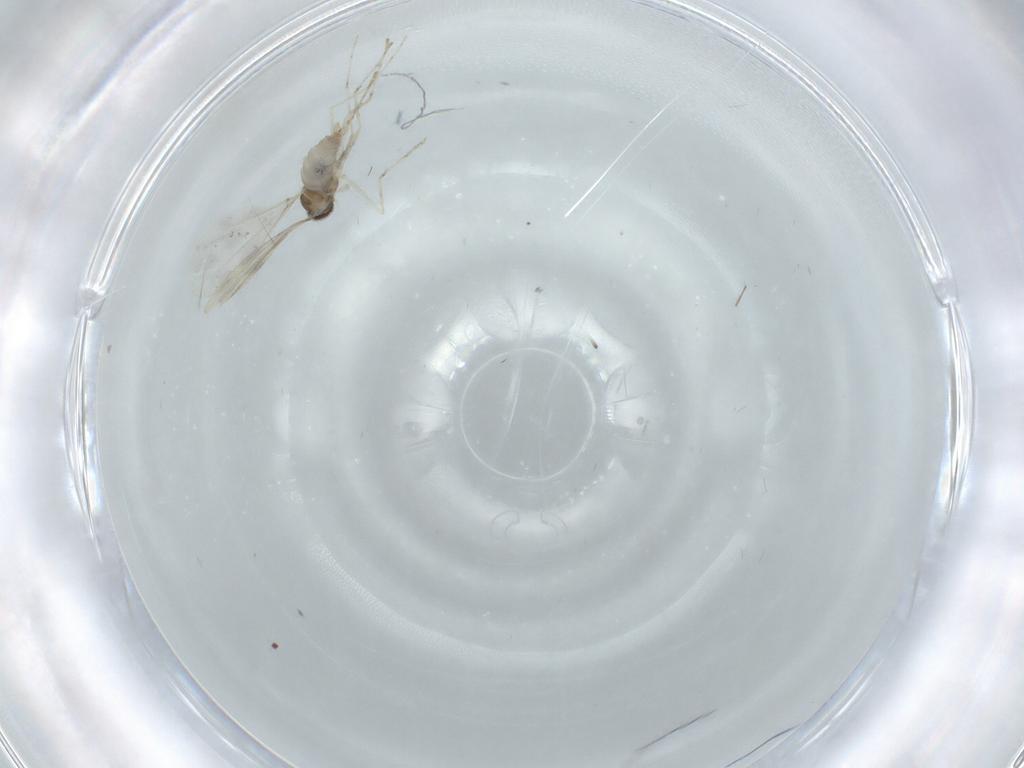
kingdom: Animalia
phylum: Arthropoda
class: Insecta
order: Diptera
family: Cecidomyiidae
